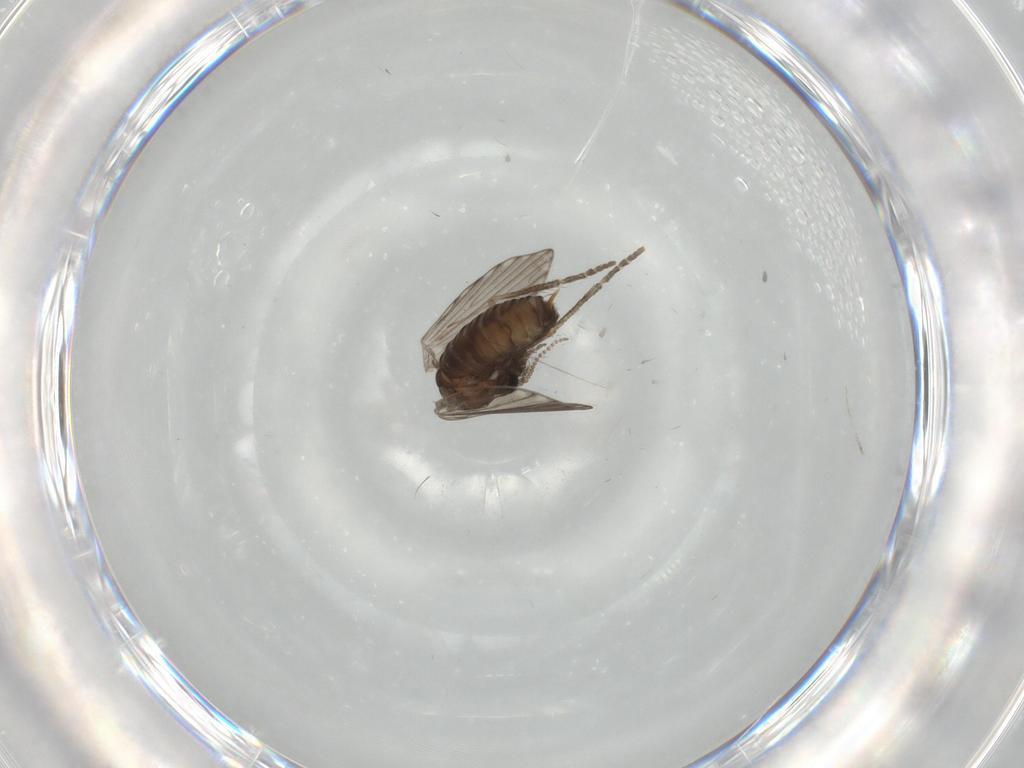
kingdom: Animalia
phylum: Arthropoda
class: Insecta
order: Diptera
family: Psychodidae
